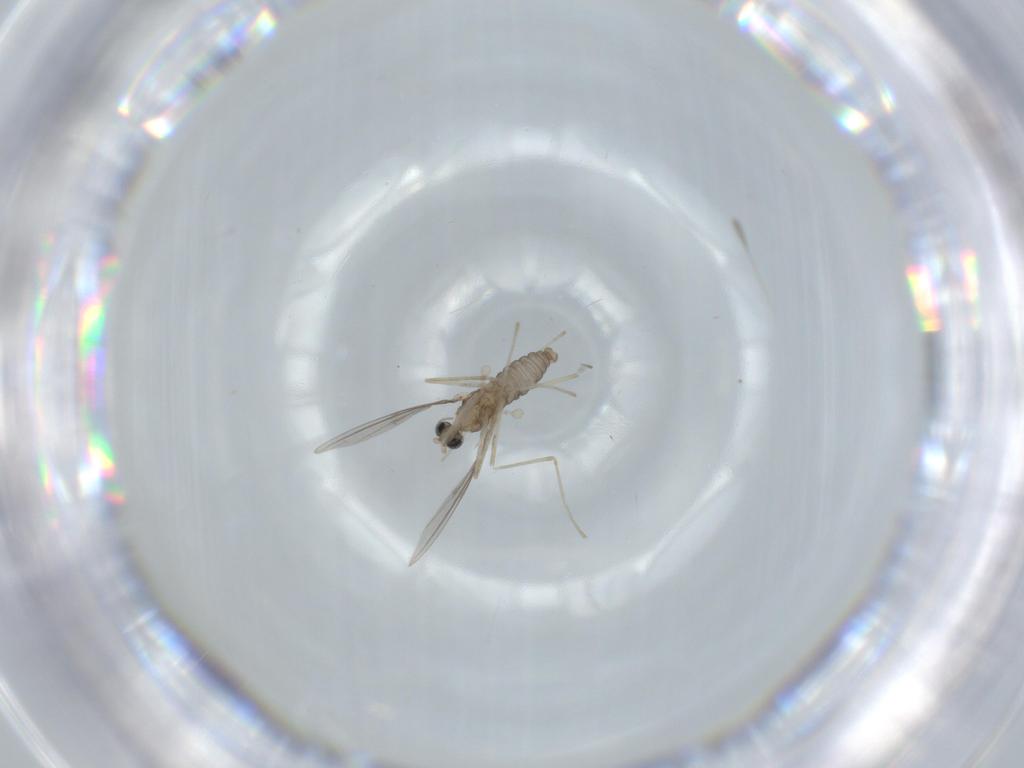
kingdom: Animalia
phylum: Arthropoda
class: Insecta
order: Diptera
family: Cecidomyiidae
